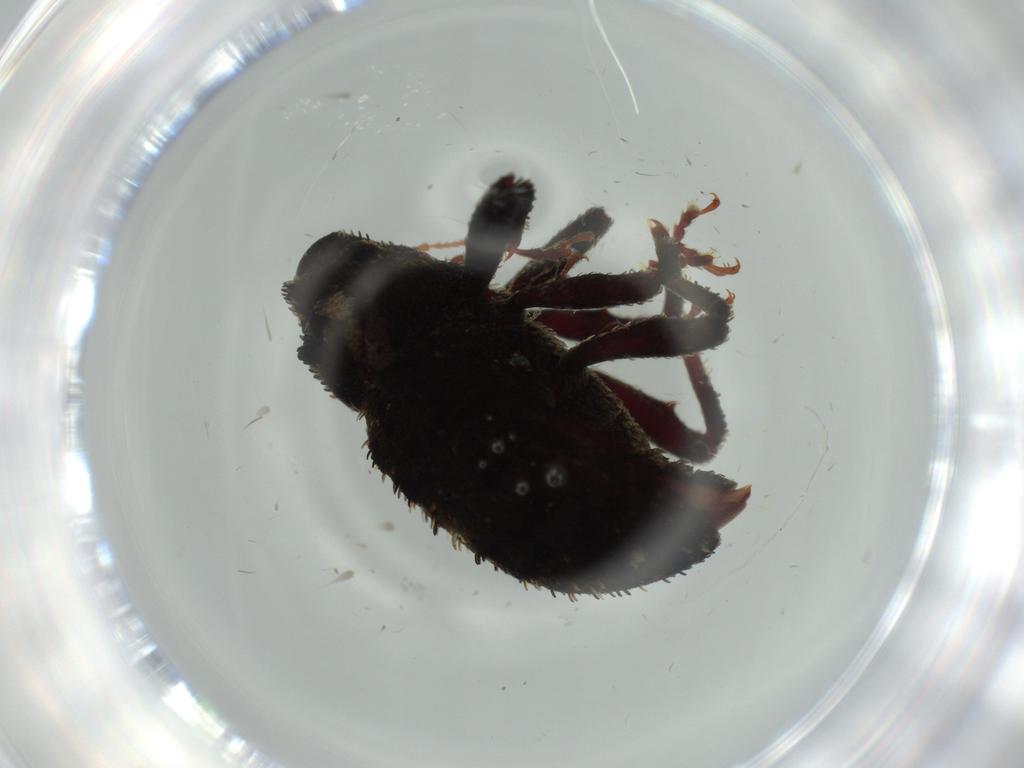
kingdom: Animalia
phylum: Arthropoda
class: Insecta
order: Coleoptera
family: Curculionidae
